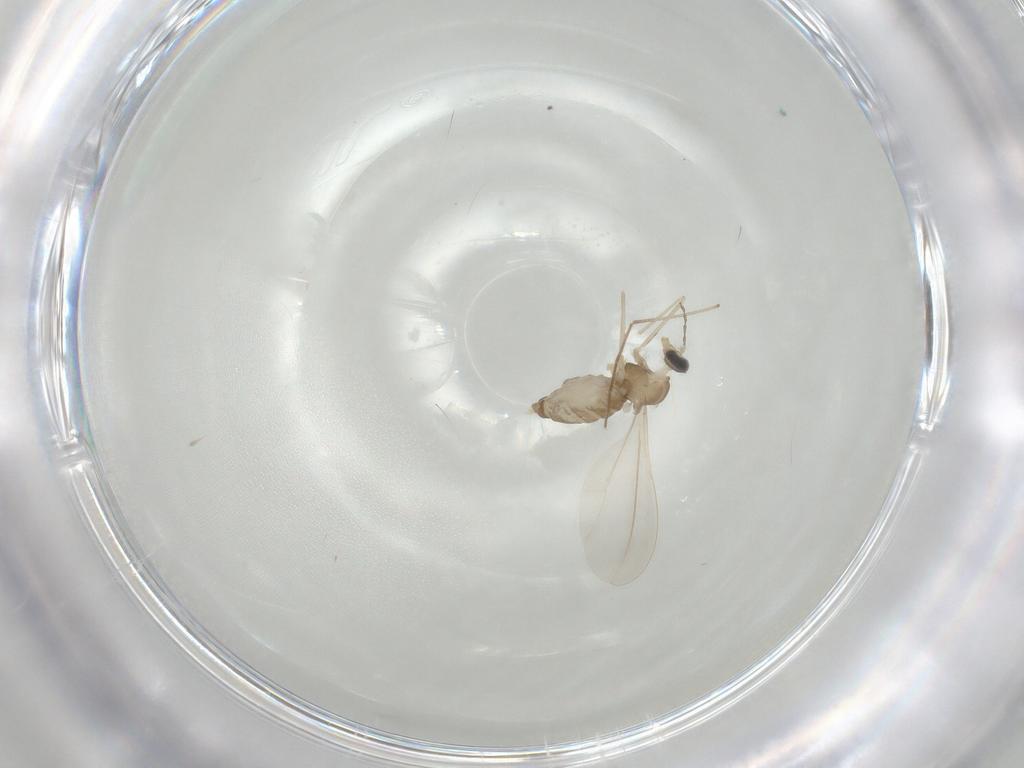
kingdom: Animalia
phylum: Arthropoda
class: Insecta
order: Diptera
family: Cecidomyiidae
